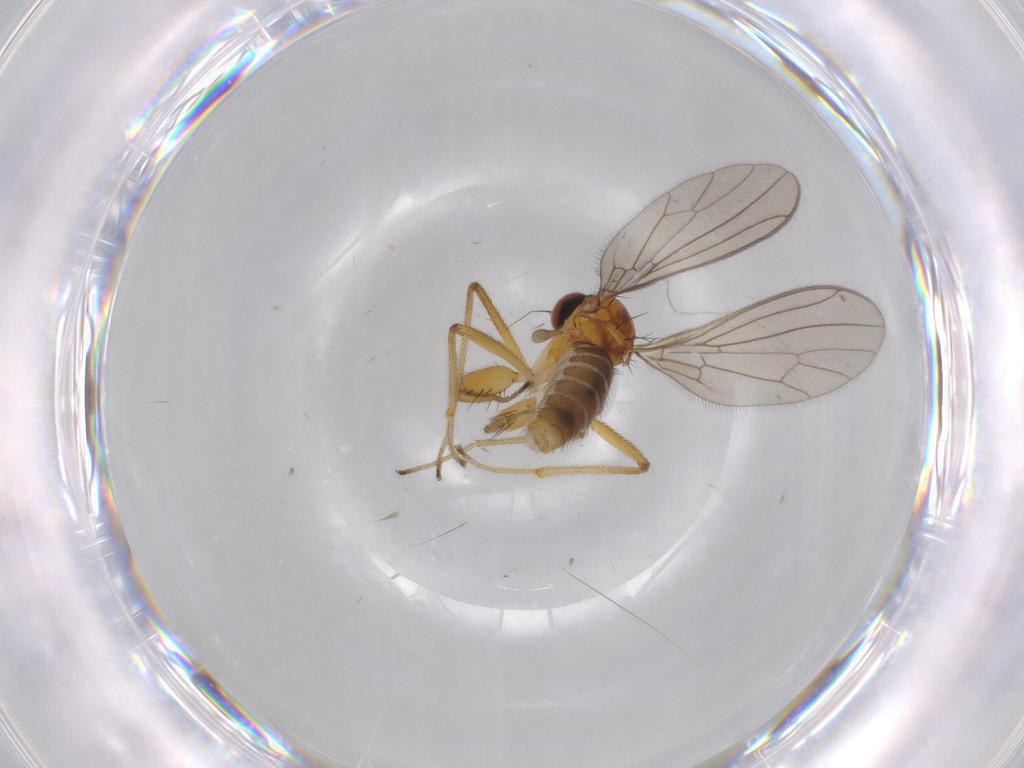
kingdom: Animalia
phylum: Arthropoda
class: Insecta
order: Diptera
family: Empididae
